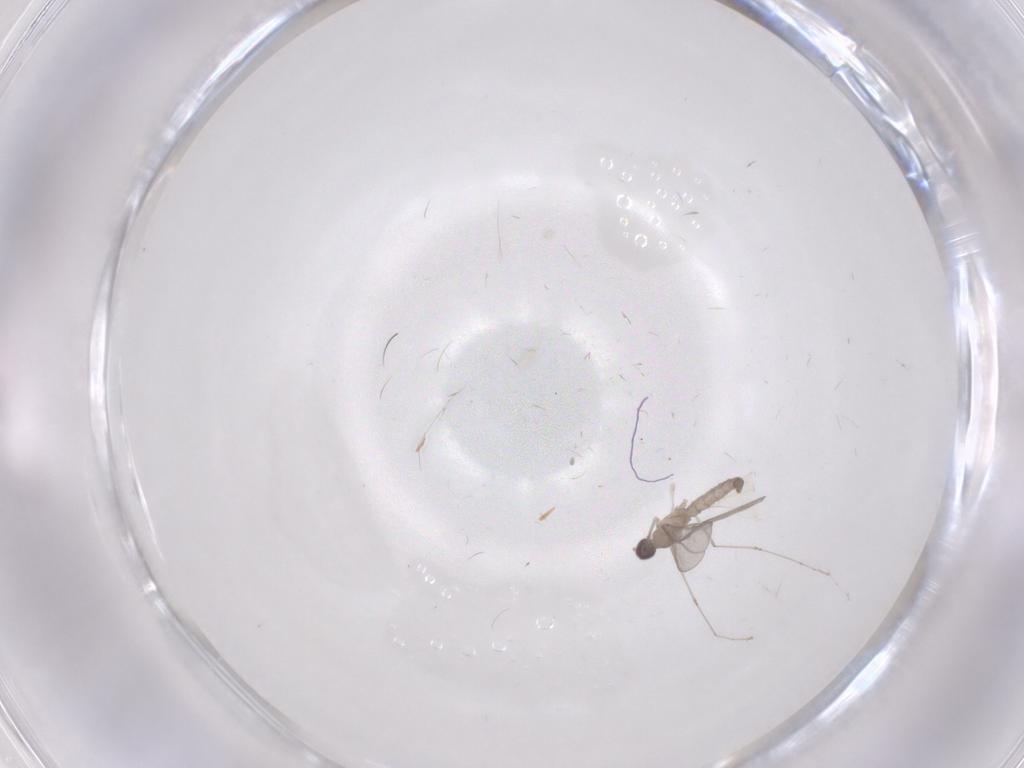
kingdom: Animalia
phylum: Arthropoda
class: Insecta
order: Diptera
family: Cecidomyiidae
